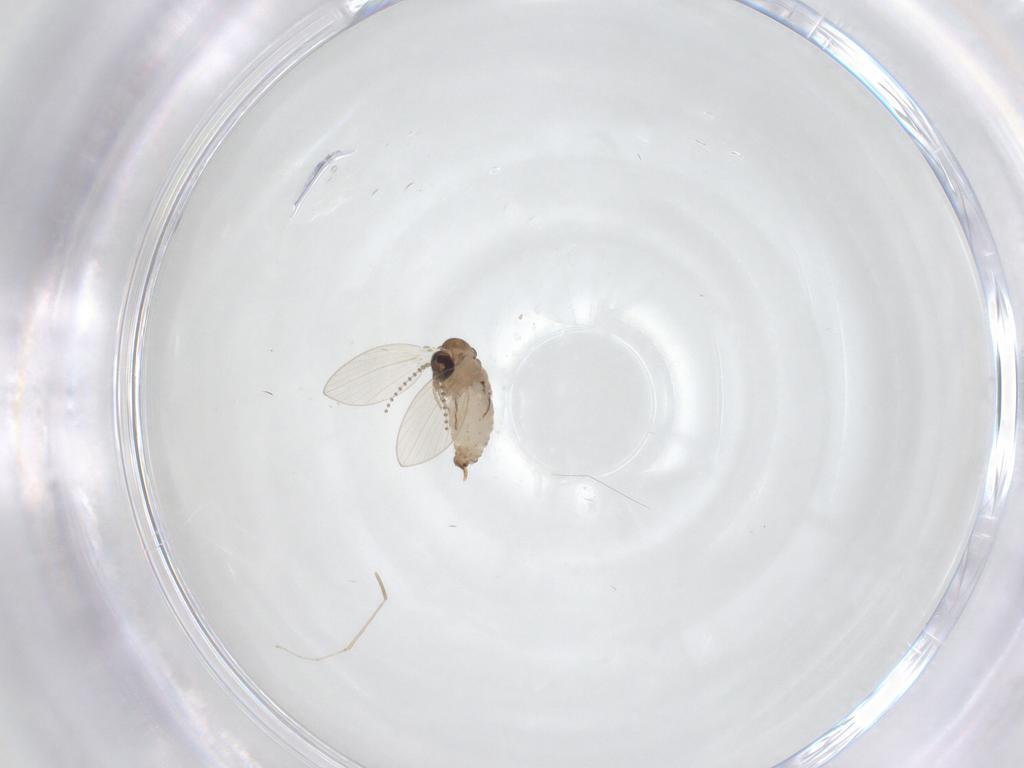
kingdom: Animalia
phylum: Arthropoda
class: Insecta
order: Diptera
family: Psychodidae
